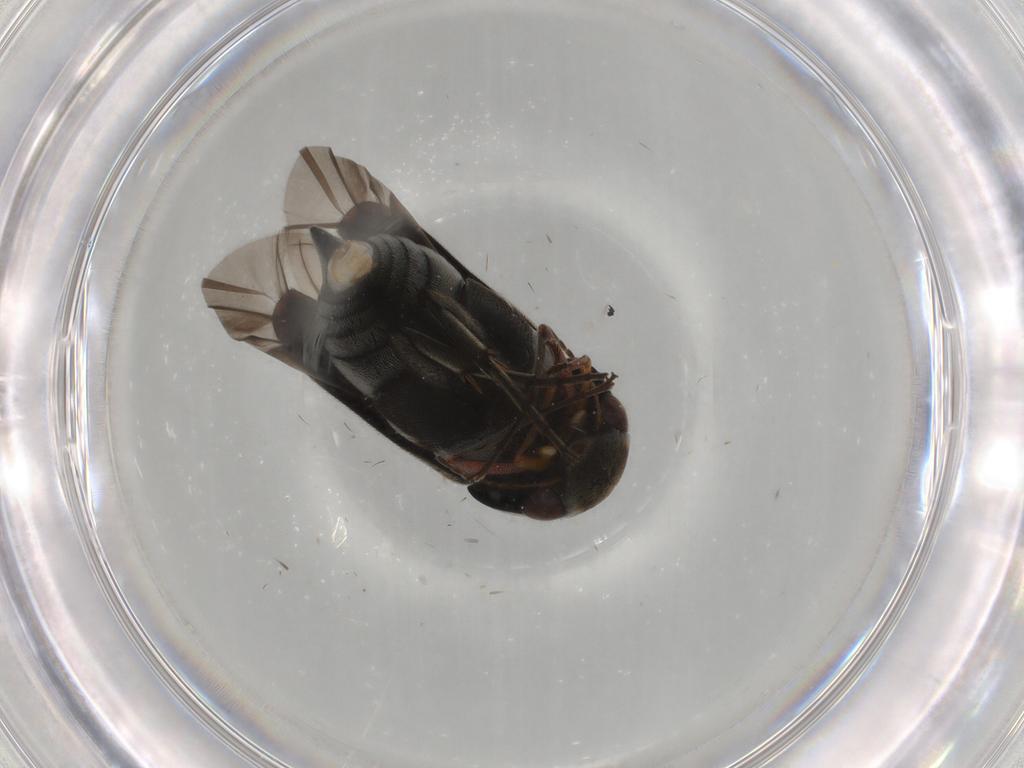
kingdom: Animalia
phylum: Arthropoda
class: Insecta
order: Coleoptera
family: Mordellidae
